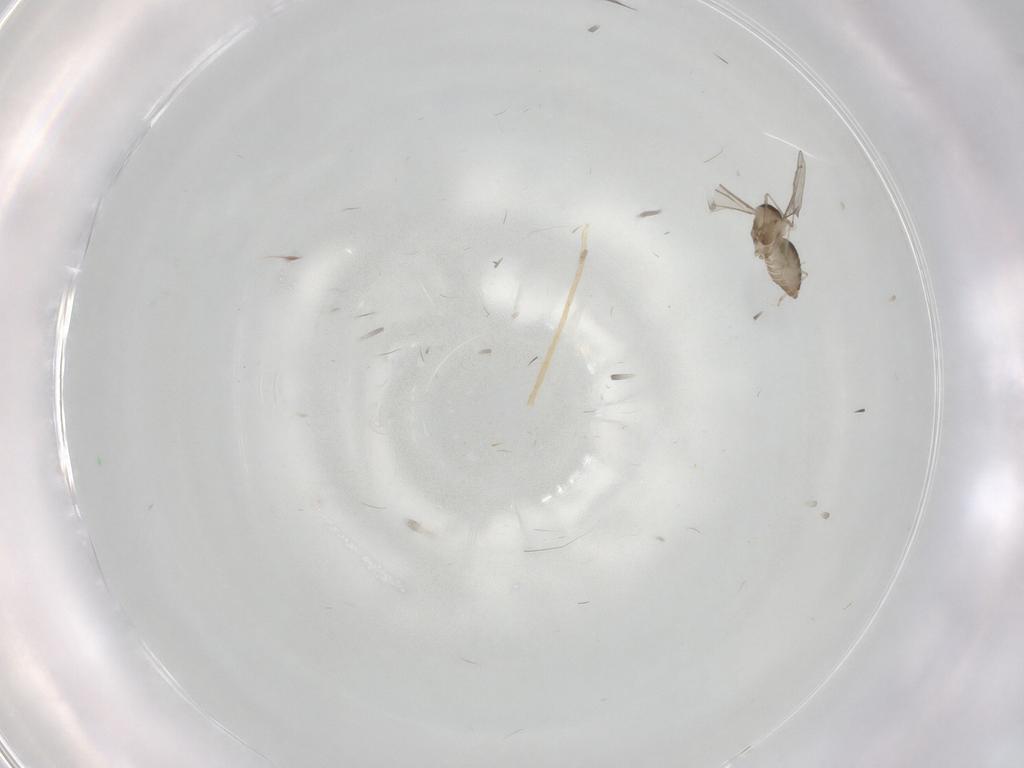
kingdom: Animalia
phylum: Arthropoda
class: Insecta
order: Diptera
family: Cecidomyiidae
